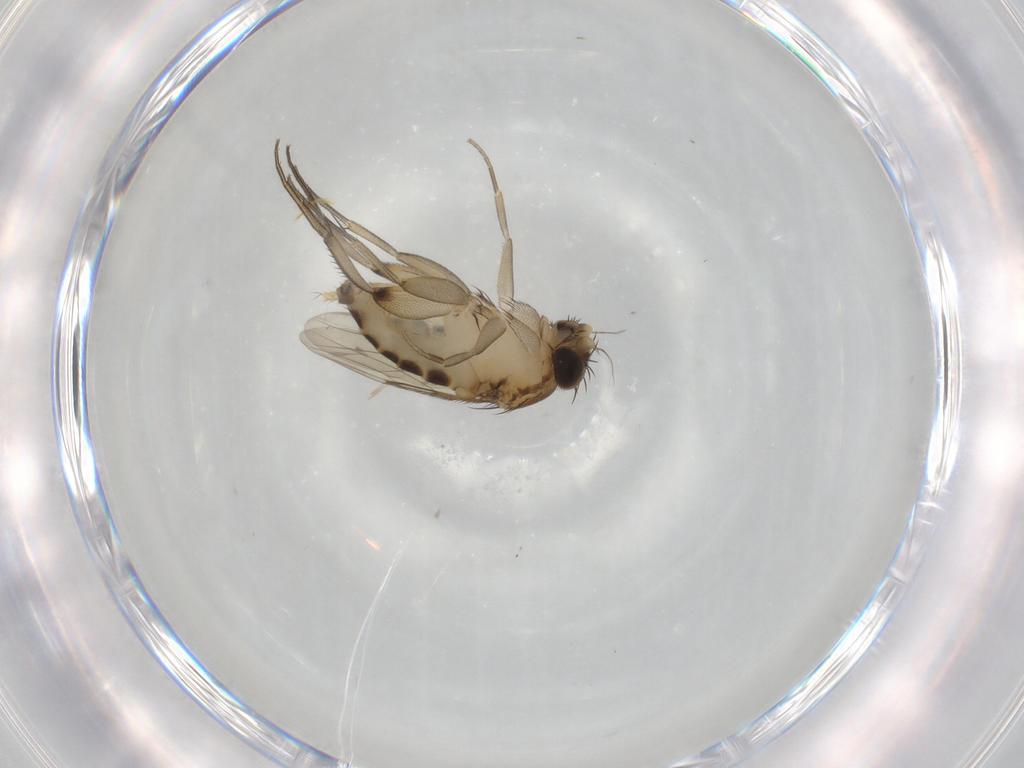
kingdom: Animalia
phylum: Arthropoda
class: Insecta
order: Diptera
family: Phoridae
